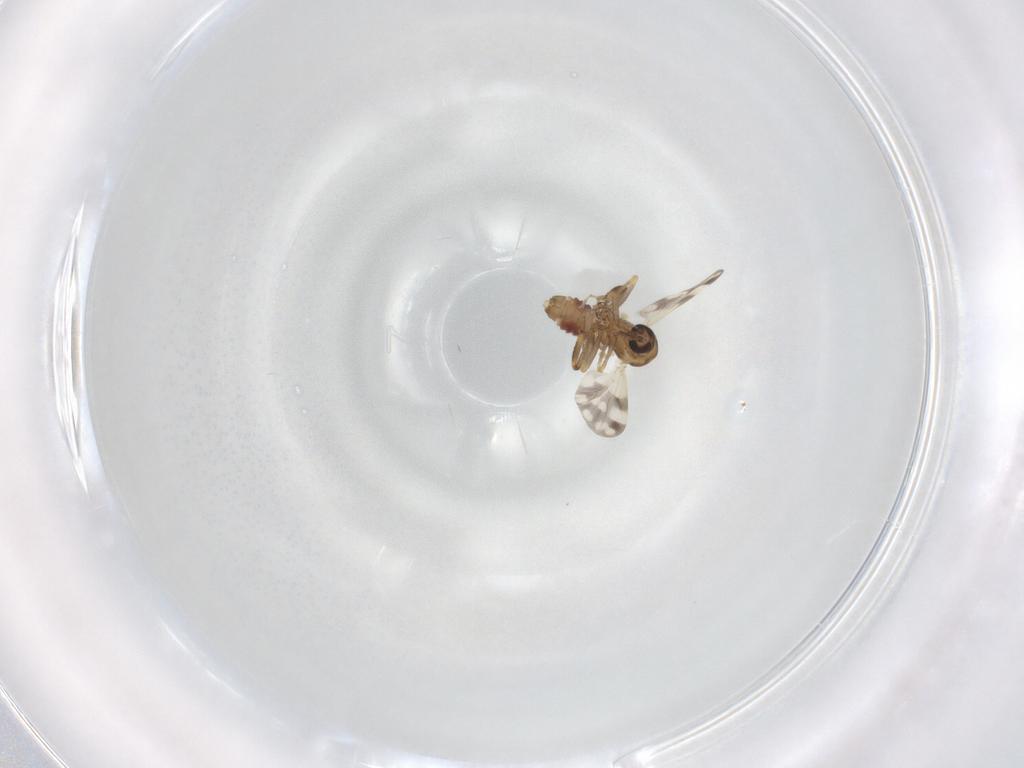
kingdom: Animalia
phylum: Arthropoda
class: Insecta
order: Diptera
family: Ceratopogonidae
